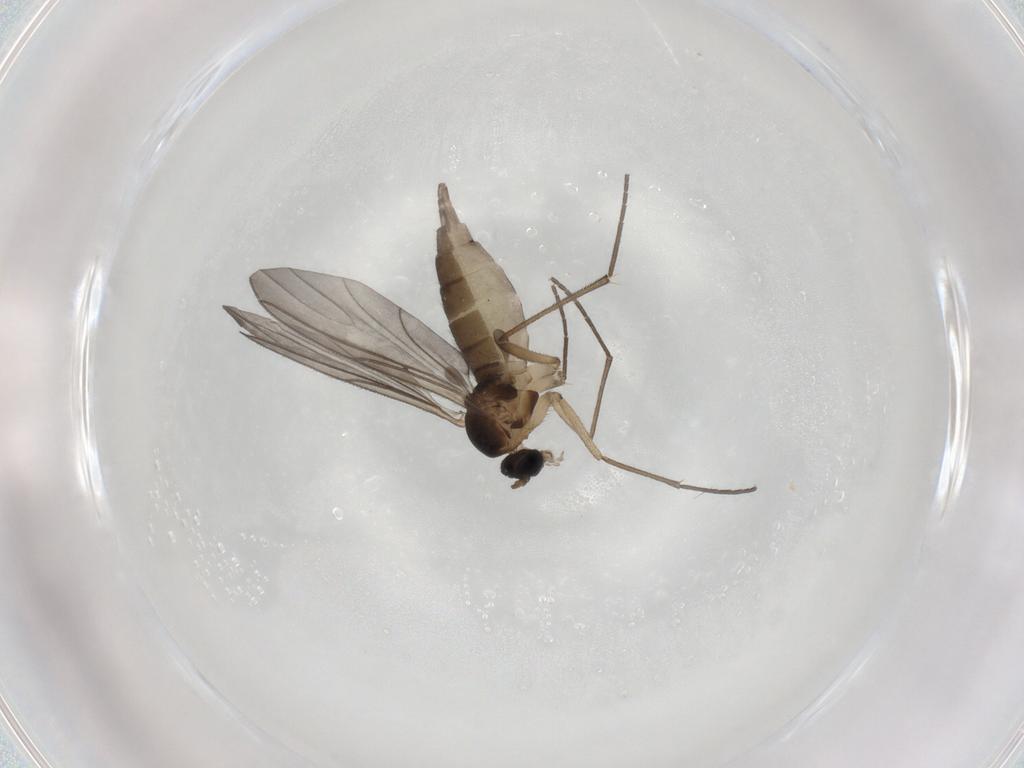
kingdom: Animalia
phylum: Arthropoda
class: Insecta
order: Diptera
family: Sciaridae
